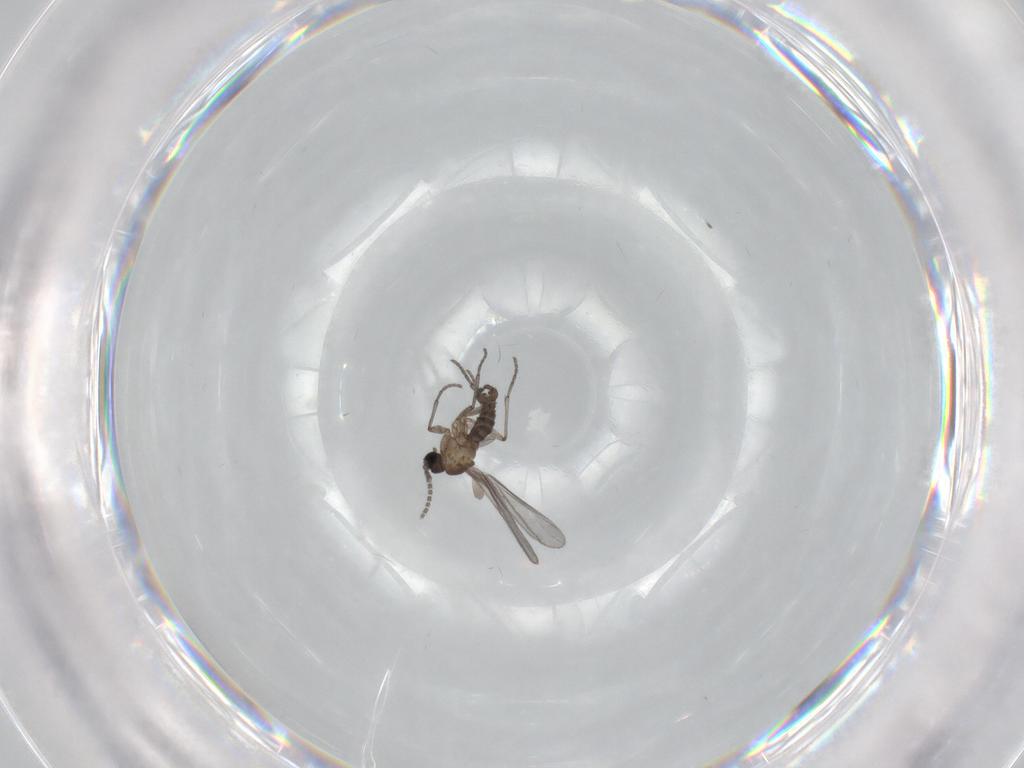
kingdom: Animalia
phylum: Arthropoda
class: Insecta
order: Diptera
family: Sciaridae
